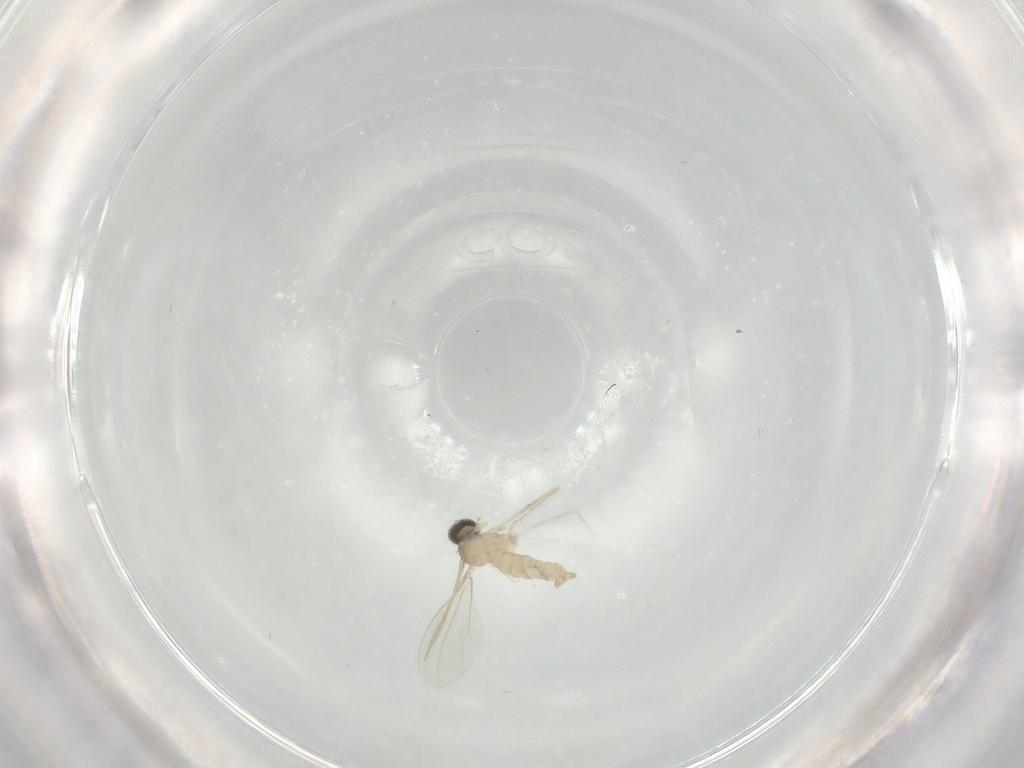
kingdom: Animalia
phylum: Arthropoda
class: Insecta
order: Diptera
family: Cecidomyiidae
